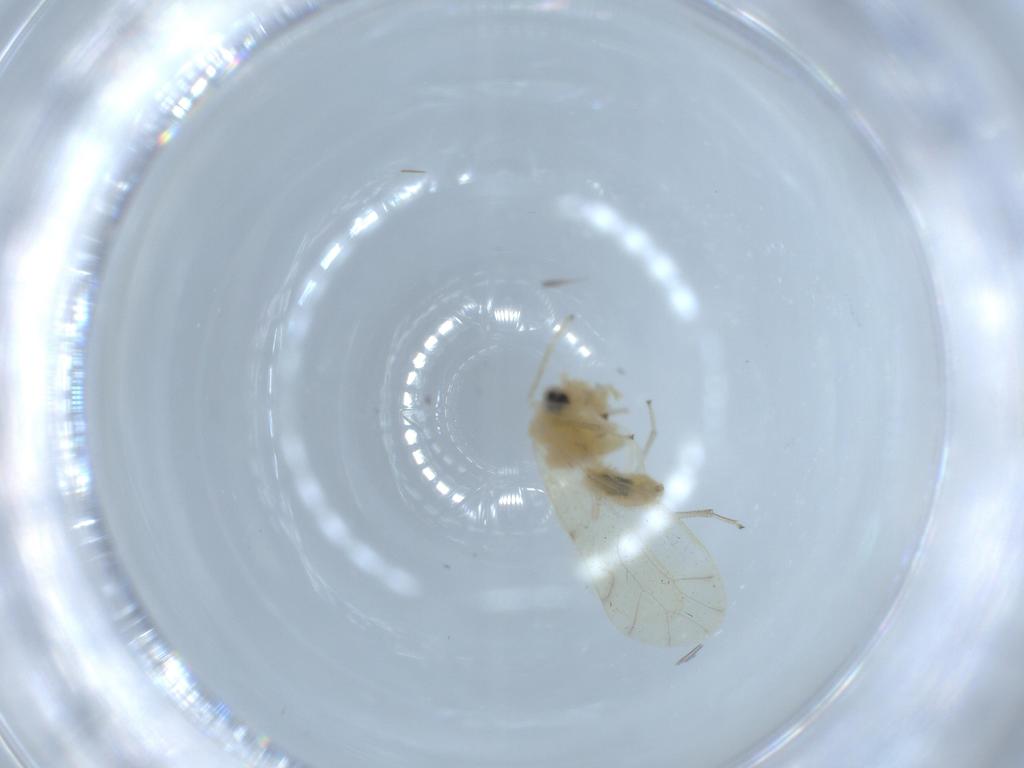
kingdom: Animalia
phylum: Arthropoda
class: Insecta
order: Psocodea
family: Caeciliusidae
